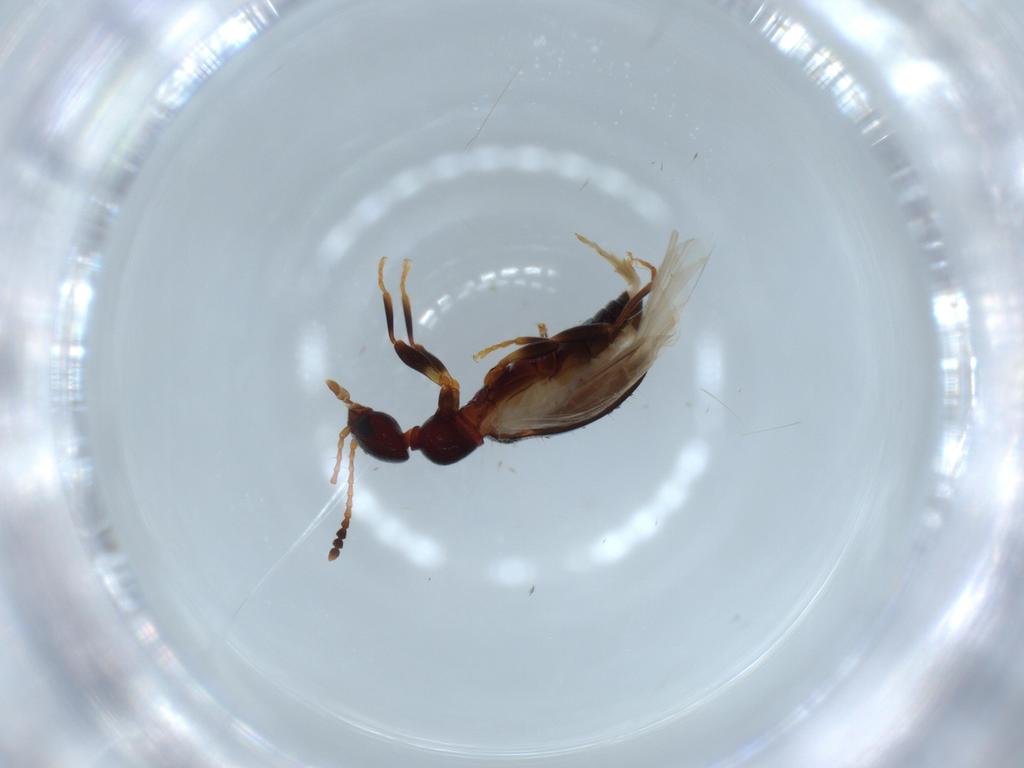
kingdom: Animalia
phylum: Arthropoda
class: Insecta
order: Coleoptera
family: Anthicidae
